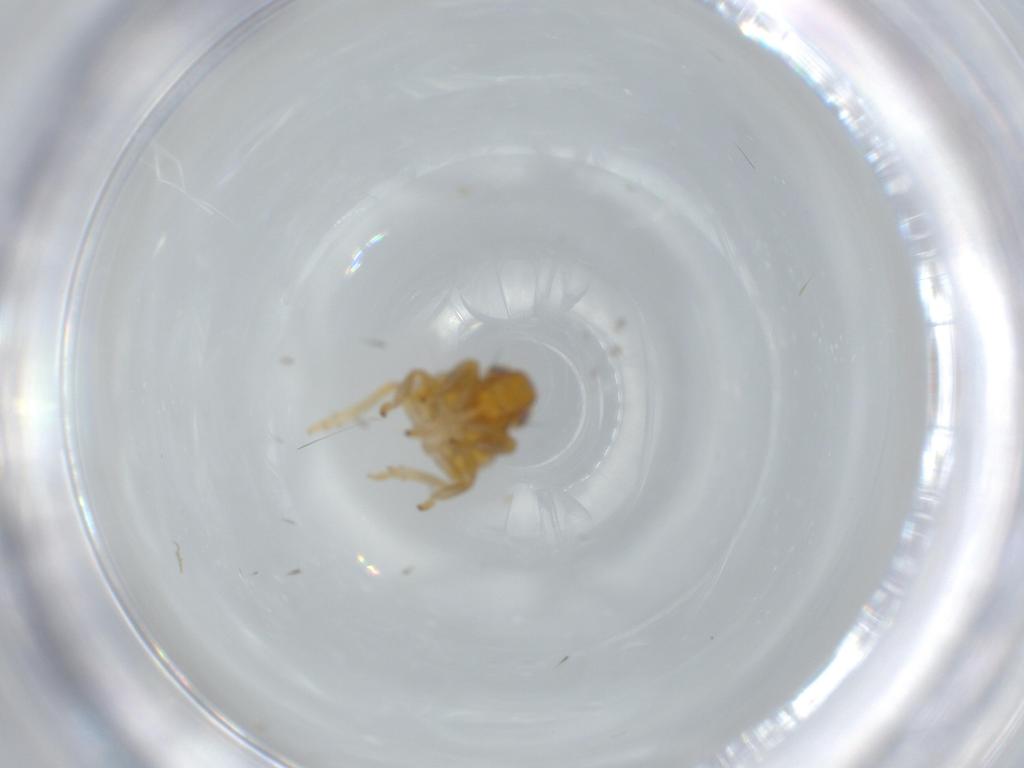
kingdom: Animalia
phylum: Arthropoda
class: Insecta
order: Hemiptera
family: Issidae
